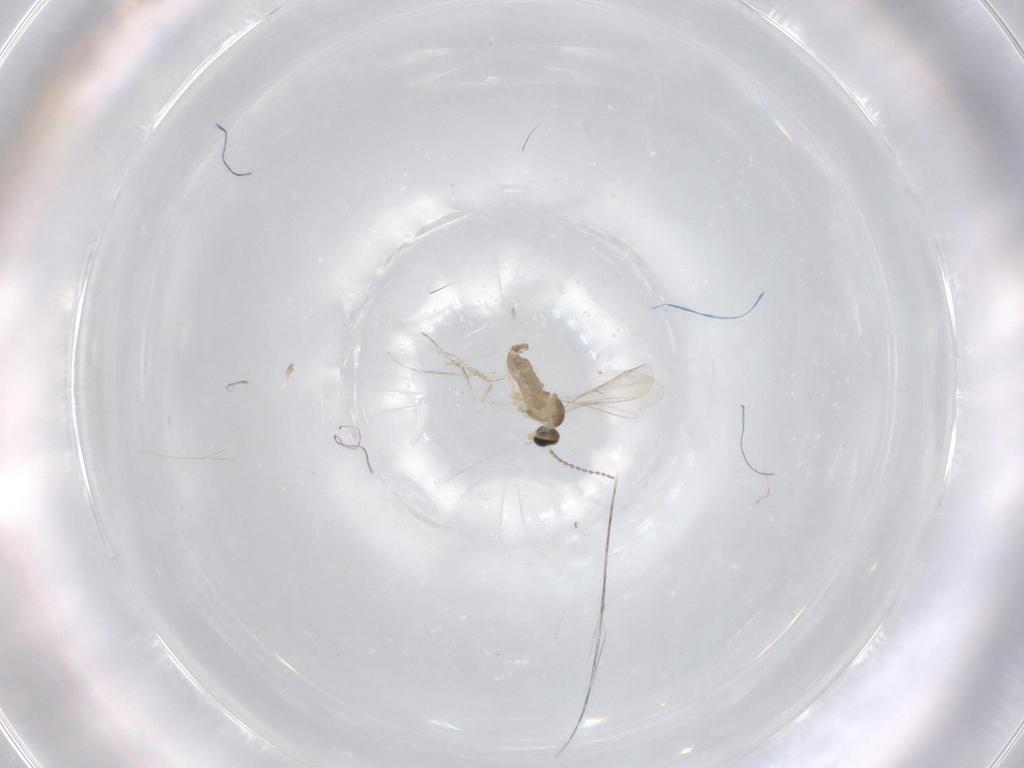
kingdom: Animalia
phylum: Arthropoda
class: Insecta
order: Diptera
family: Cecidomyiidae
